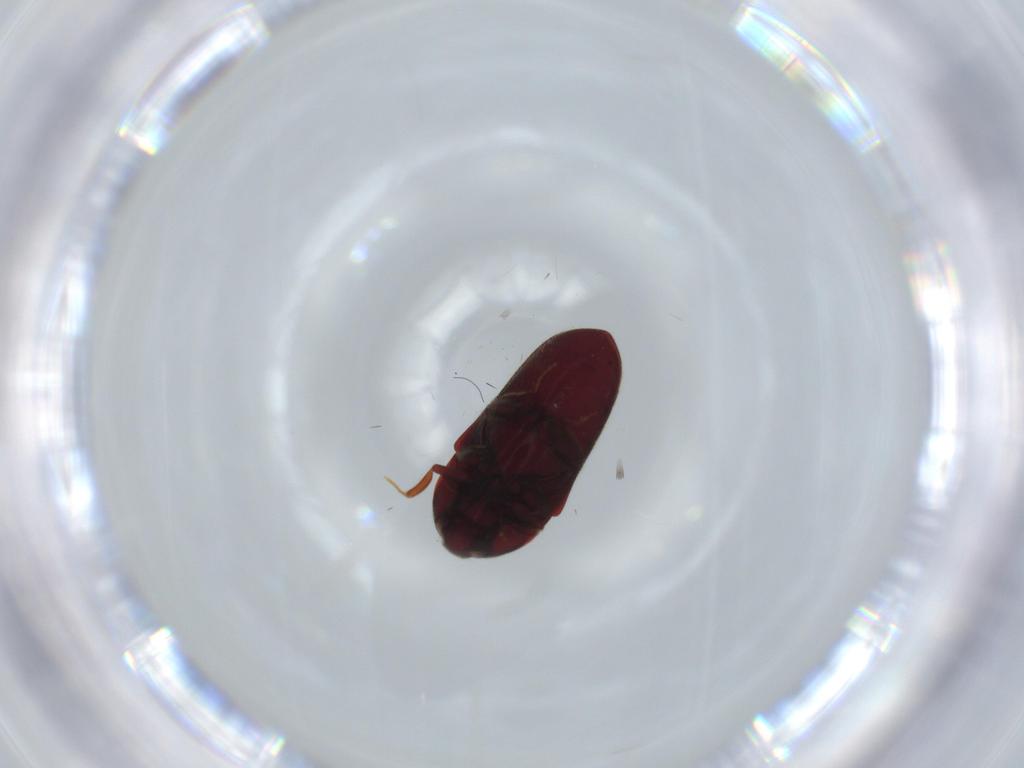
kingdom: Animalia
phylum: Arthropoda
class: Insecta
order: Coleoptera
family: Throscidae
